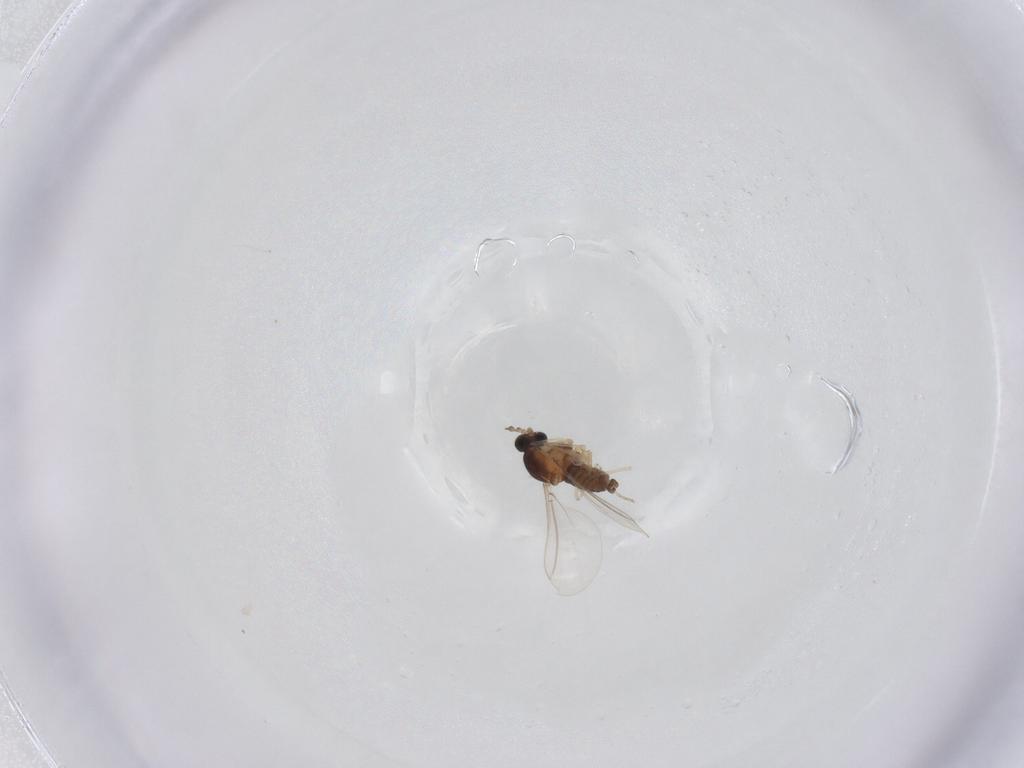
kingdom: Animalia
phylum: Arthropoda
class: Insecta
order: Diptera
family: Cecidomyiidae
